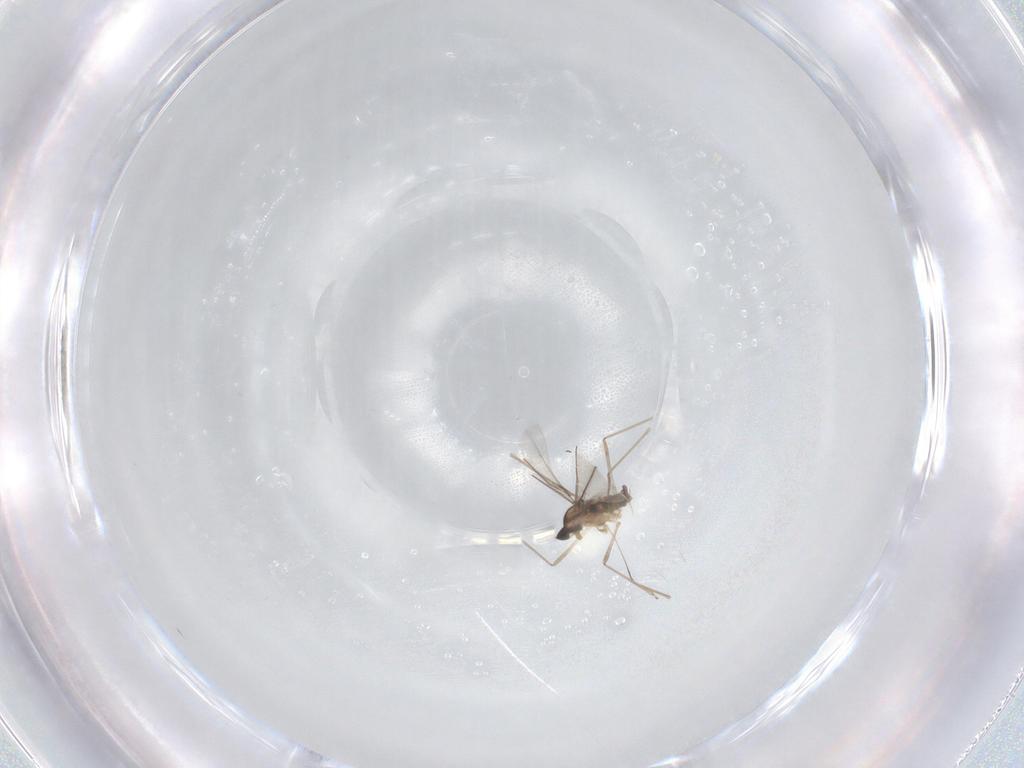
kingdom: Animalia
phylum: Arthropoda
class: Insecta
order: Diptera
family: Cecidomyiidae
